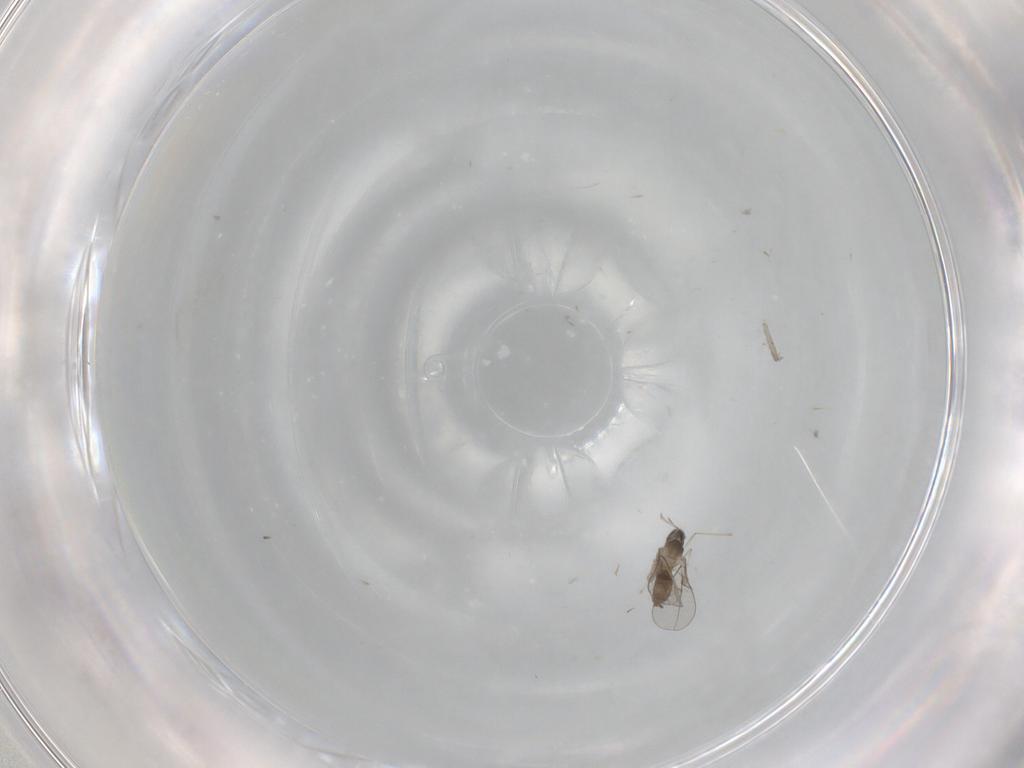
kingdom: Animalia
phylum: Arthropoda
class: Insecta
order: Diptera
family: Cecidomyiidae
